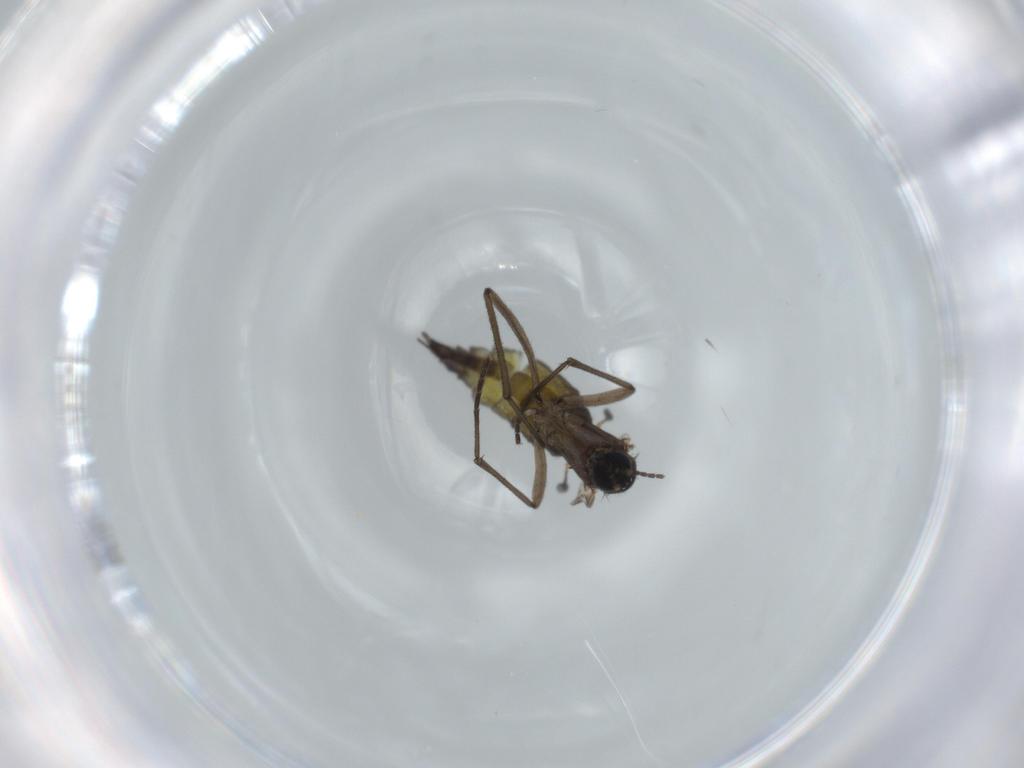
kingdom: Animalia
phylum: Arthropoda
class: Insecta
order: Diptera
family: Sciaridae
